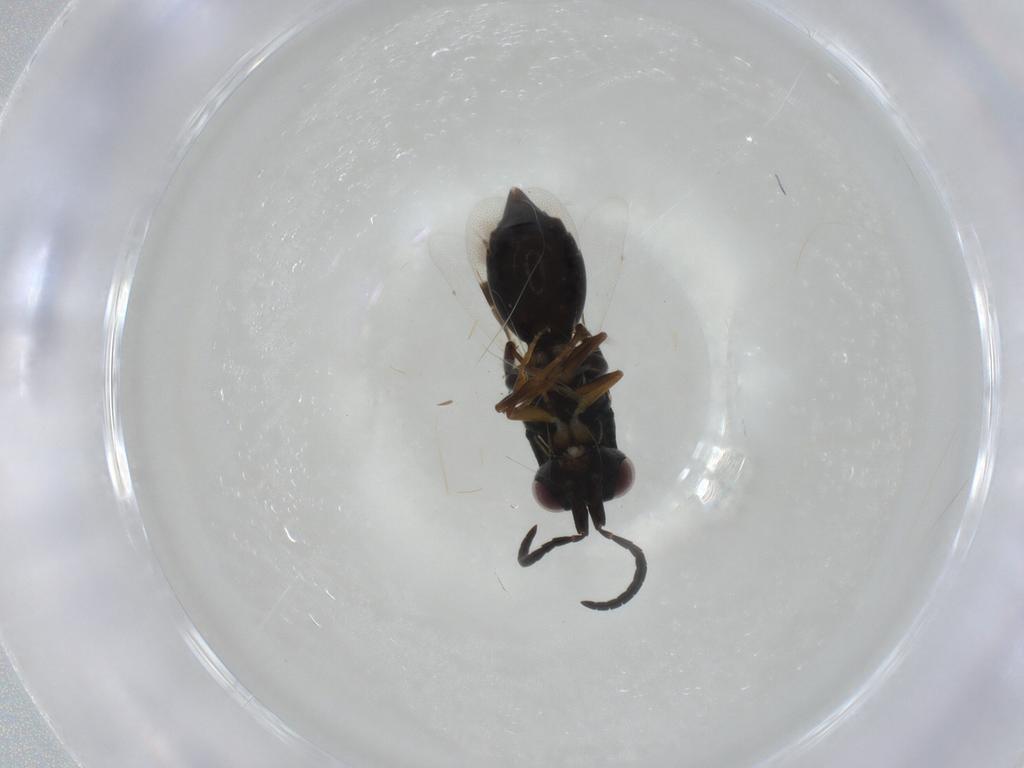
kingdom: Animalia
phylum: Arthropoda
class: Insecta
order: Hymenoptera
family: Megaspilidae
